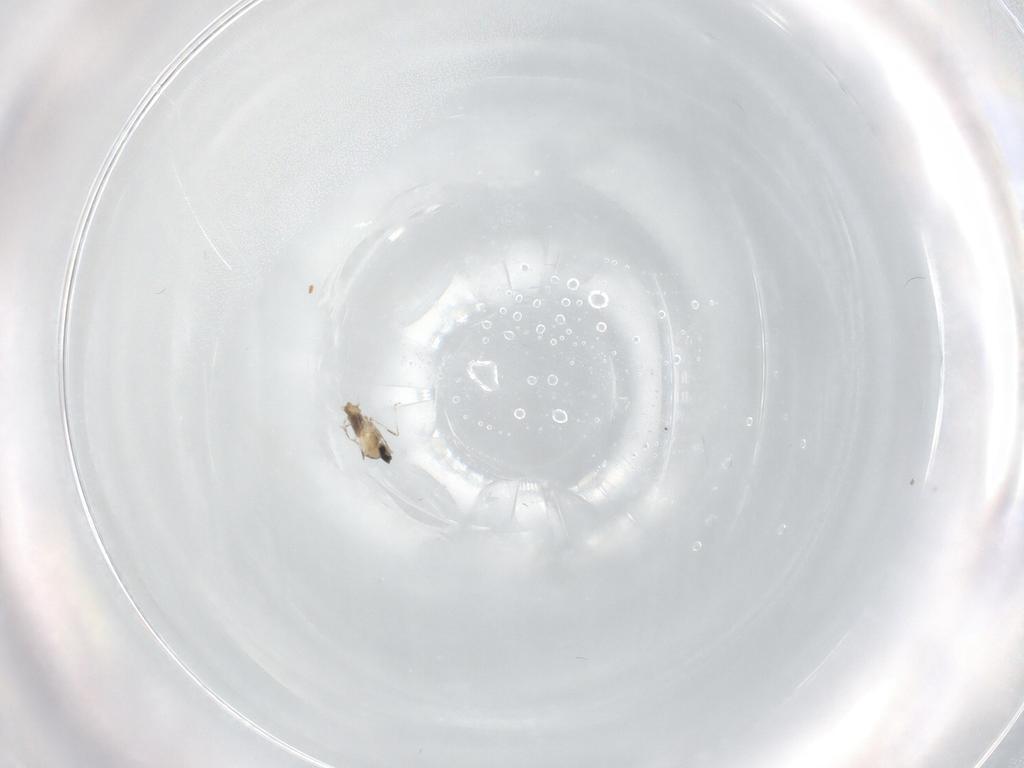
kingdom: Animalia
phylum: Arthropoda
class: Insecta
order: Diptera
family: Cecidomyiidae
